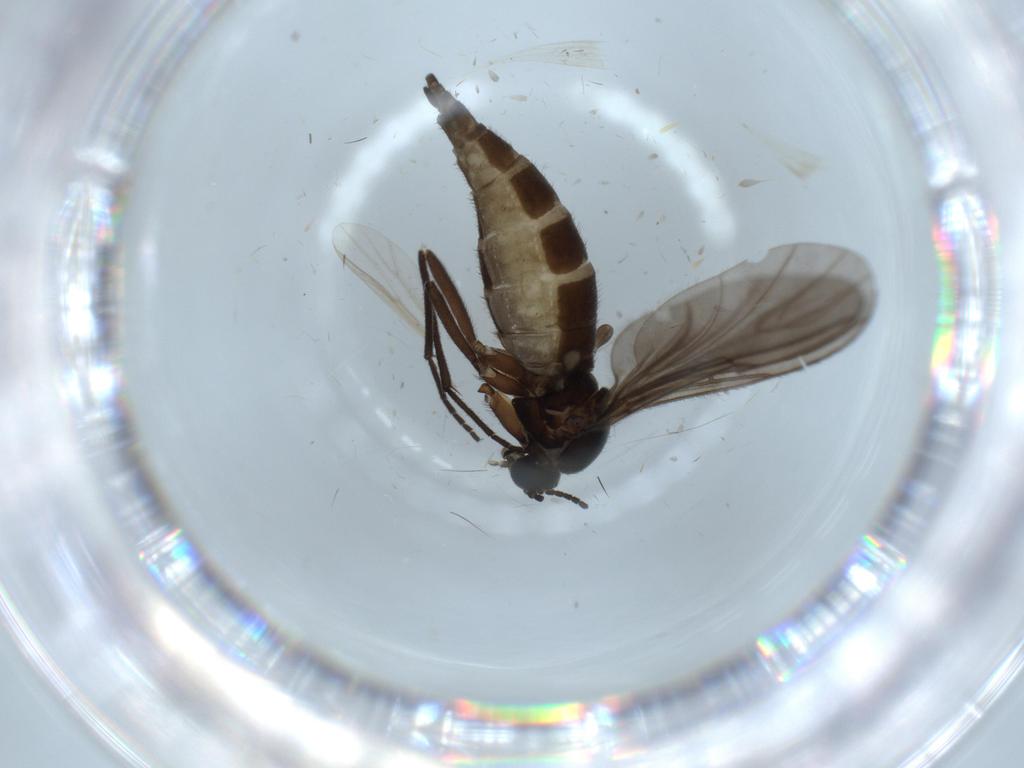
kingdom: Animalia
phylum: Arthropoda
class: Insecta
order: Diptera
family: Sciaridae
